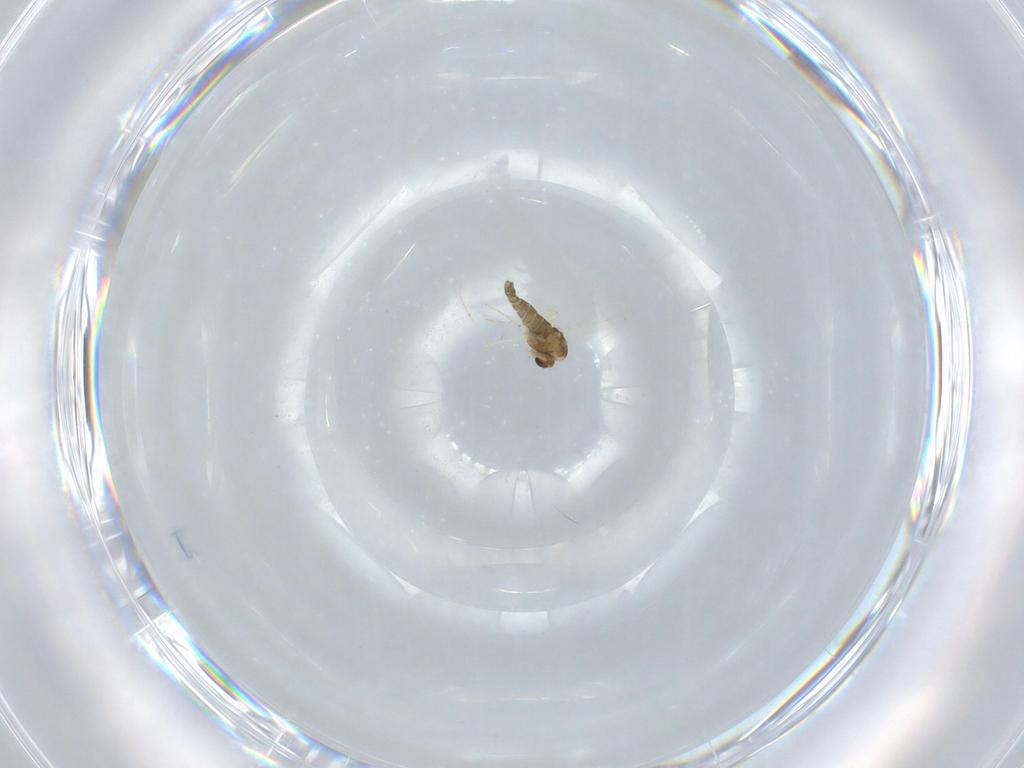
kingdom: Animalia
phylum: Arthropoda
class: Insecta
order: Diptera
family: Chironomidae
